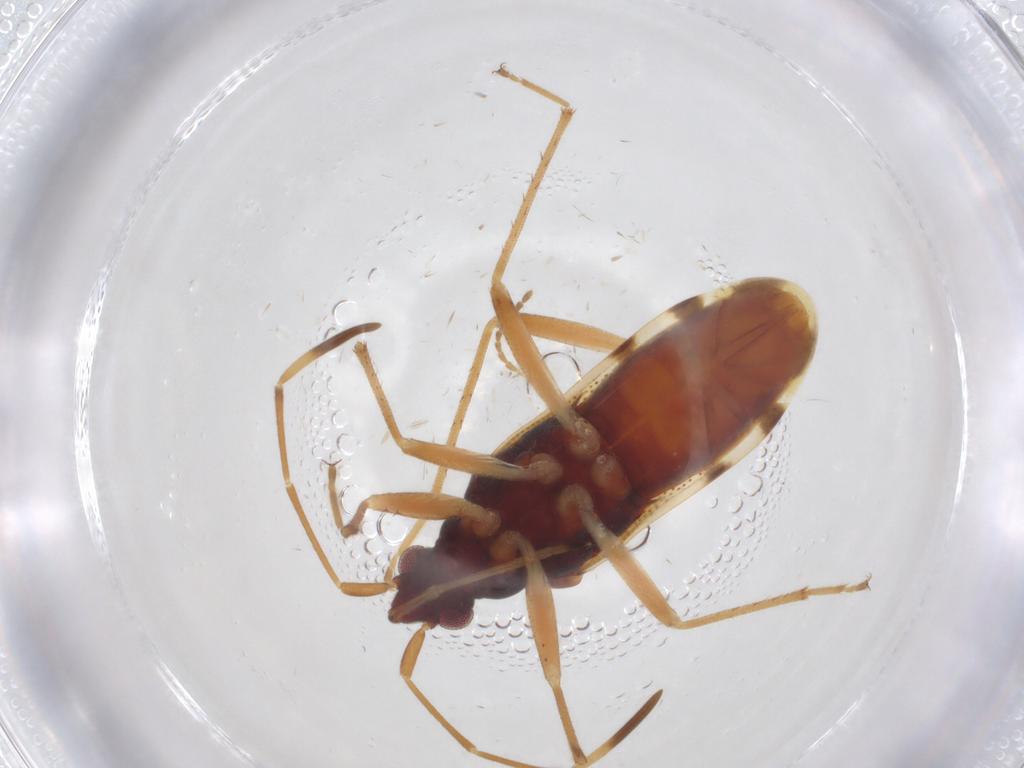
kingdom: Animalia
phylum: Arthropoda
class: Insecta
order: Hemiptera
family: Rhyparochromidae
